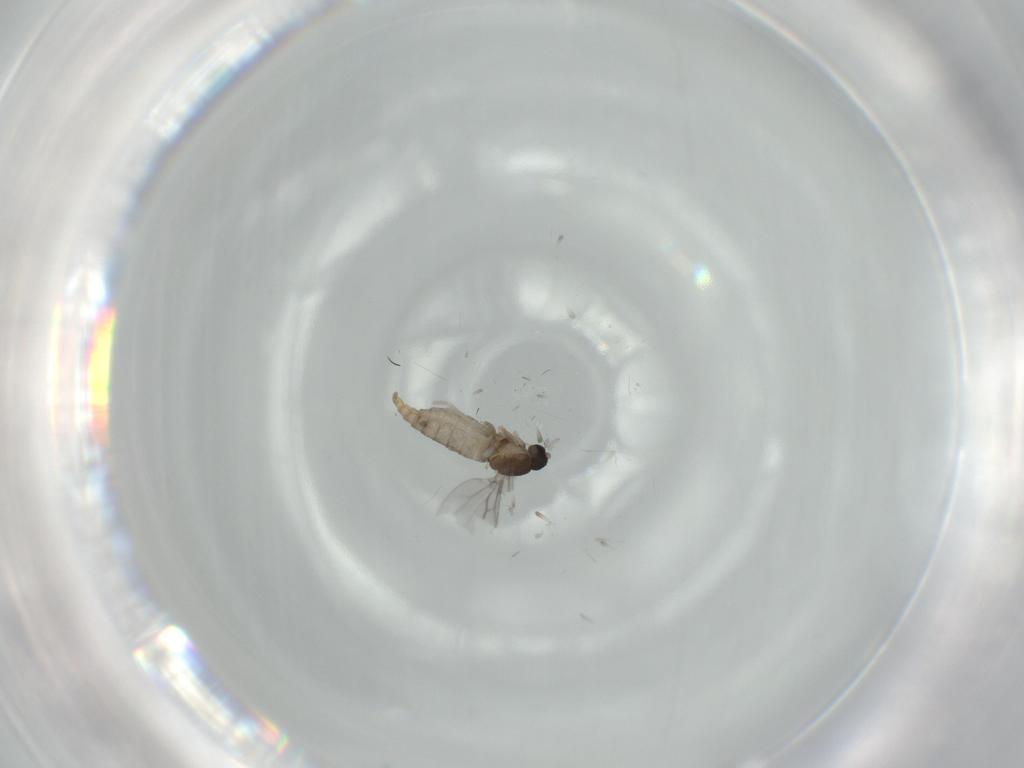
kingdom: Animalia
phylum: Arthropoda
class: Insecta
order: Diptera
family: Cecidomyiidae
